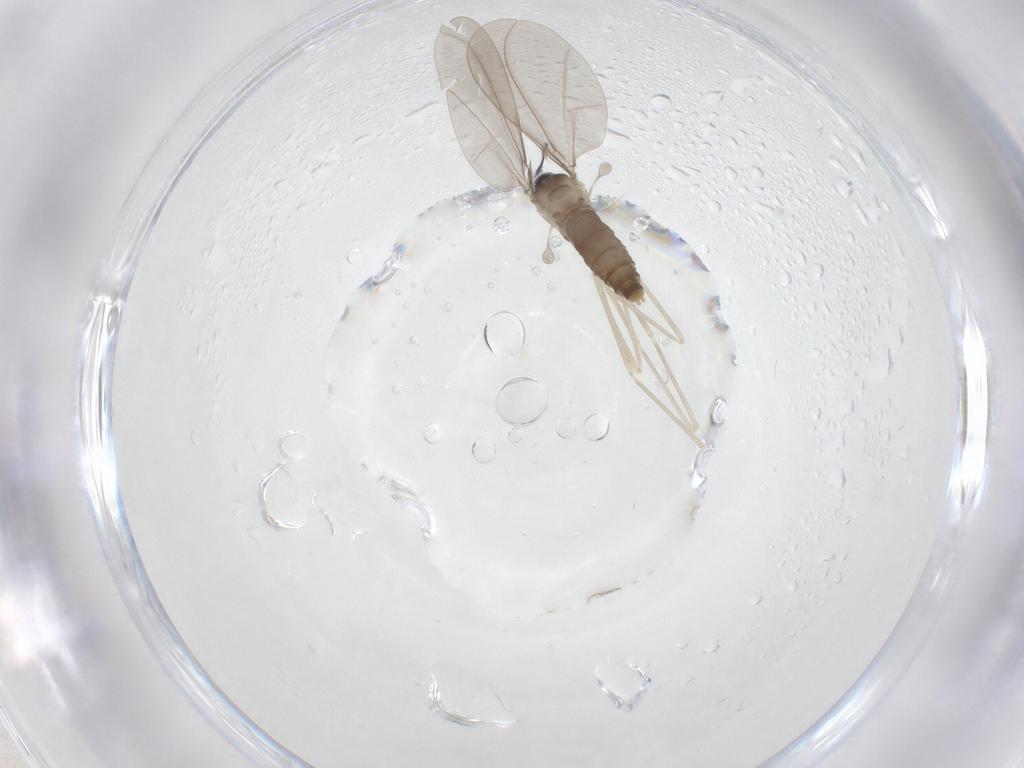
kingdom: Animalia
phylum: Arthropoda
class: Insecta
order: Diptera
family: Cecidomyiidae
